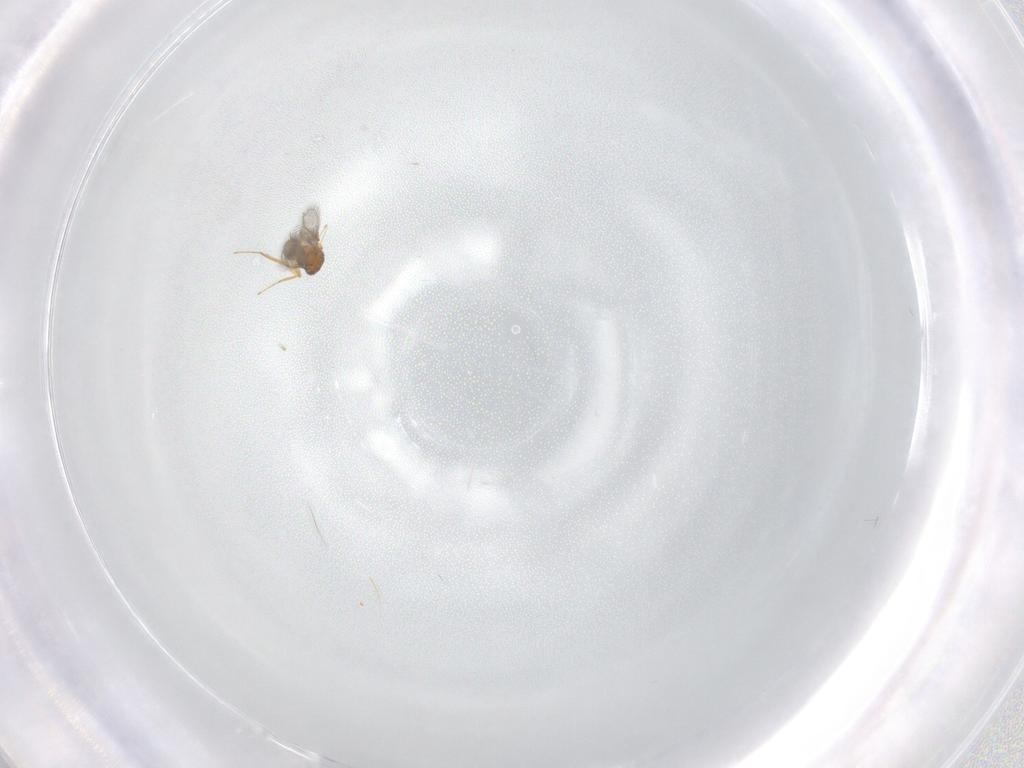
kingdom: Animalia
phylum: Arthropoda
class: Insecta
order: Hymenoptera
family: Mymaridae
